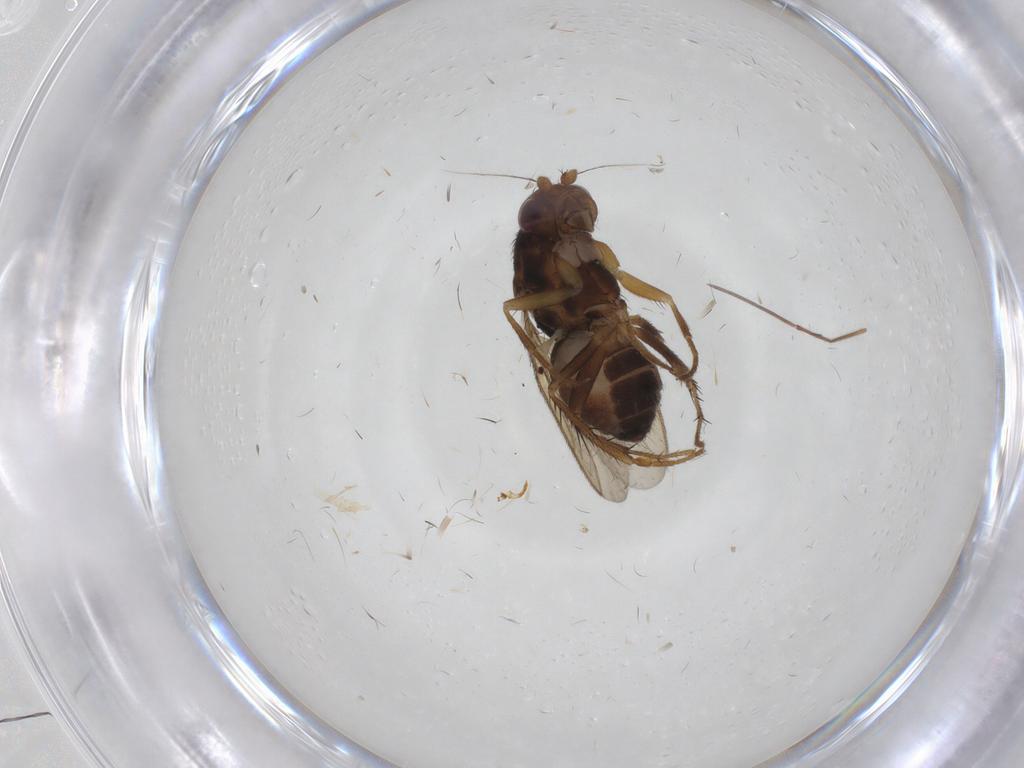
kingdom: Animalia
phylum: Arthropoda
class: Insecta
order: Diptera
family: Sphaeroceridae
